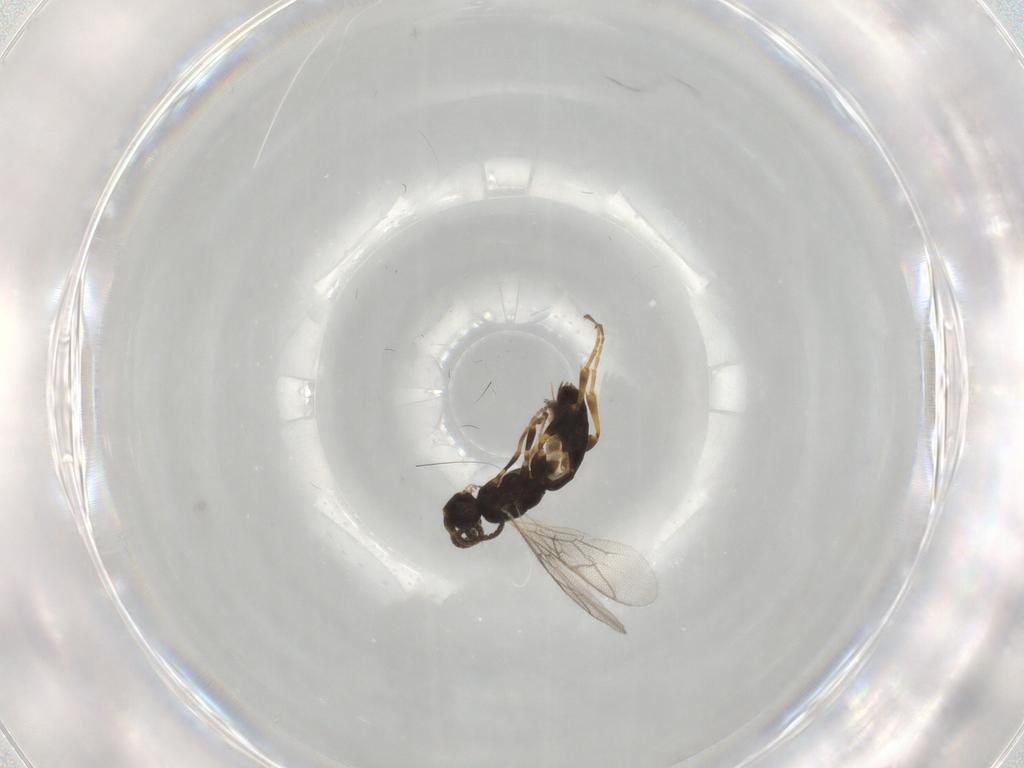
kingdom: Animalia
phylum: Arthropoda
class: Insecta
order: Hymenoptera
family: Ichneumonidae
